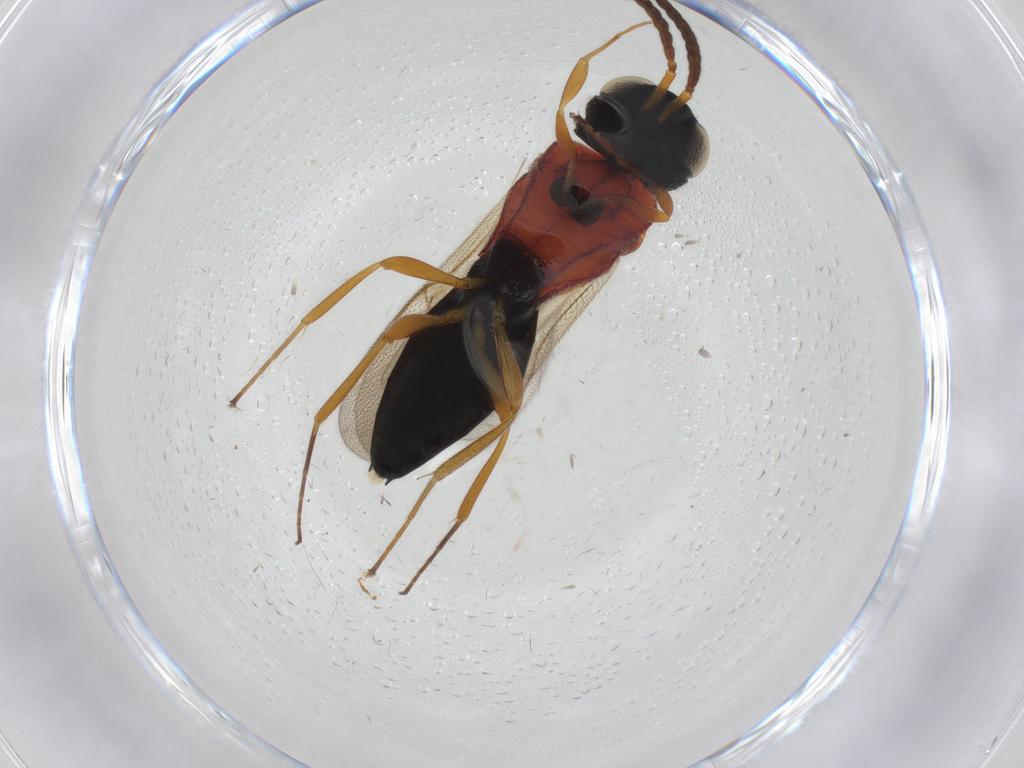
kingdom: Animalia
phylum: Arthropoda
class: Insecta
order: Hymenoptera
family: Scelionidae
